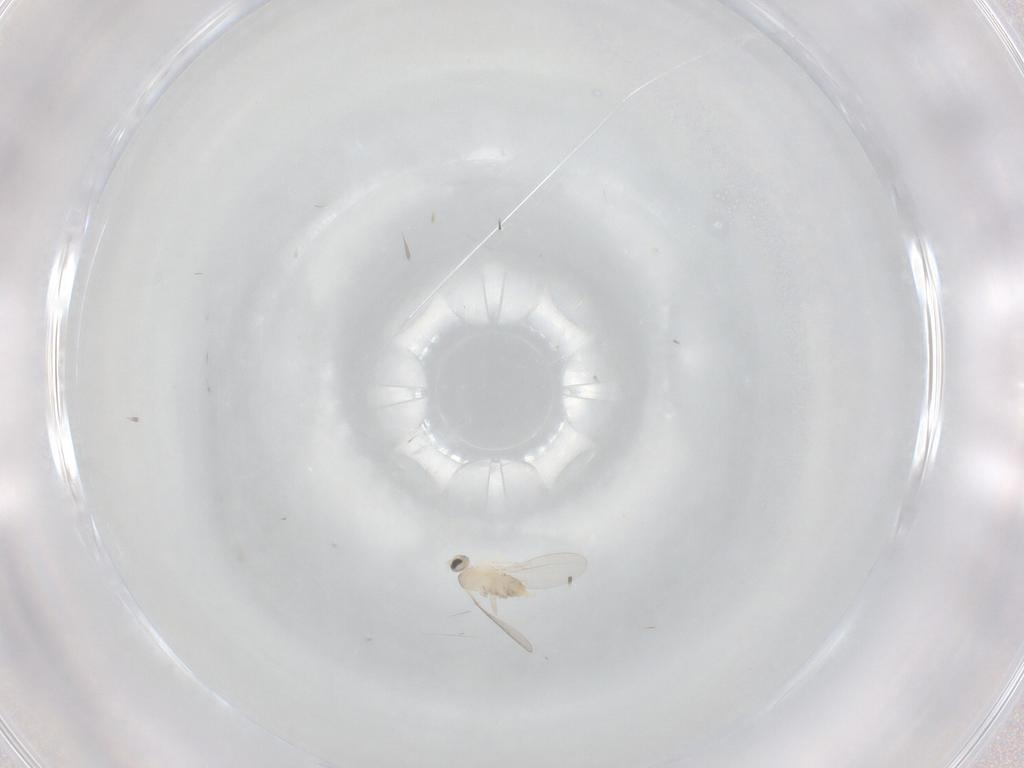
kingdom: Animalia
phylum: Arthropoda
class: Insecta
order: Diptera
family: Cecidomyiidae
